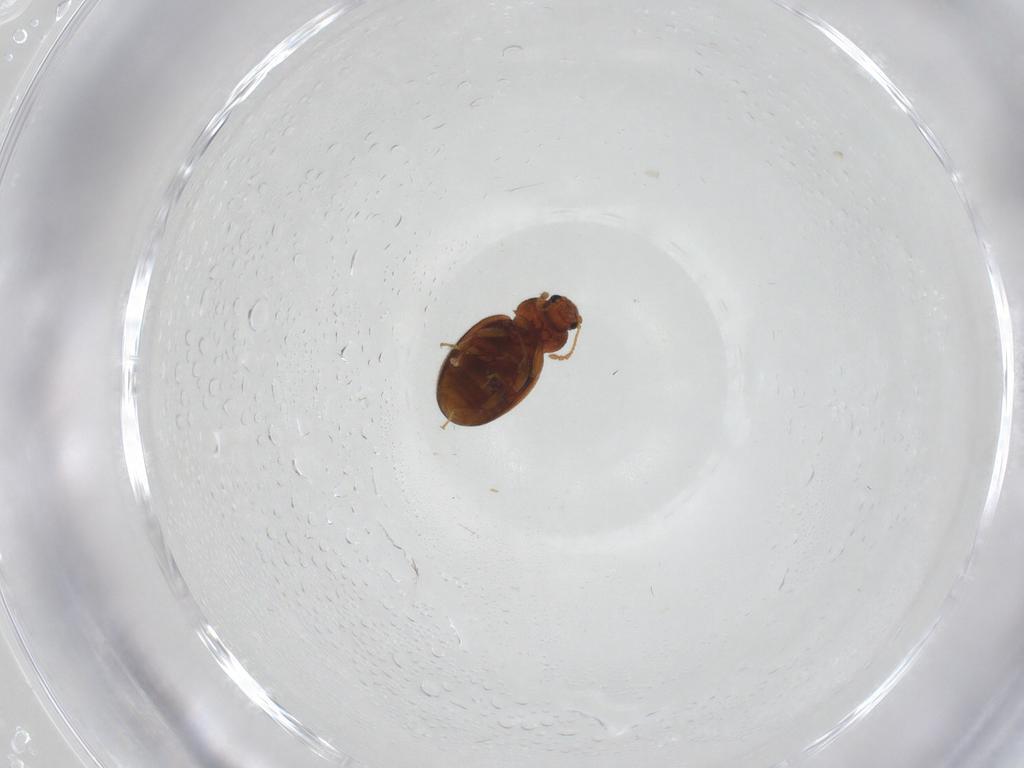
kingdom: Animalia
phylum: Arthropoda
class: Insecta
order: Coleoptera
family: Latridiidae
